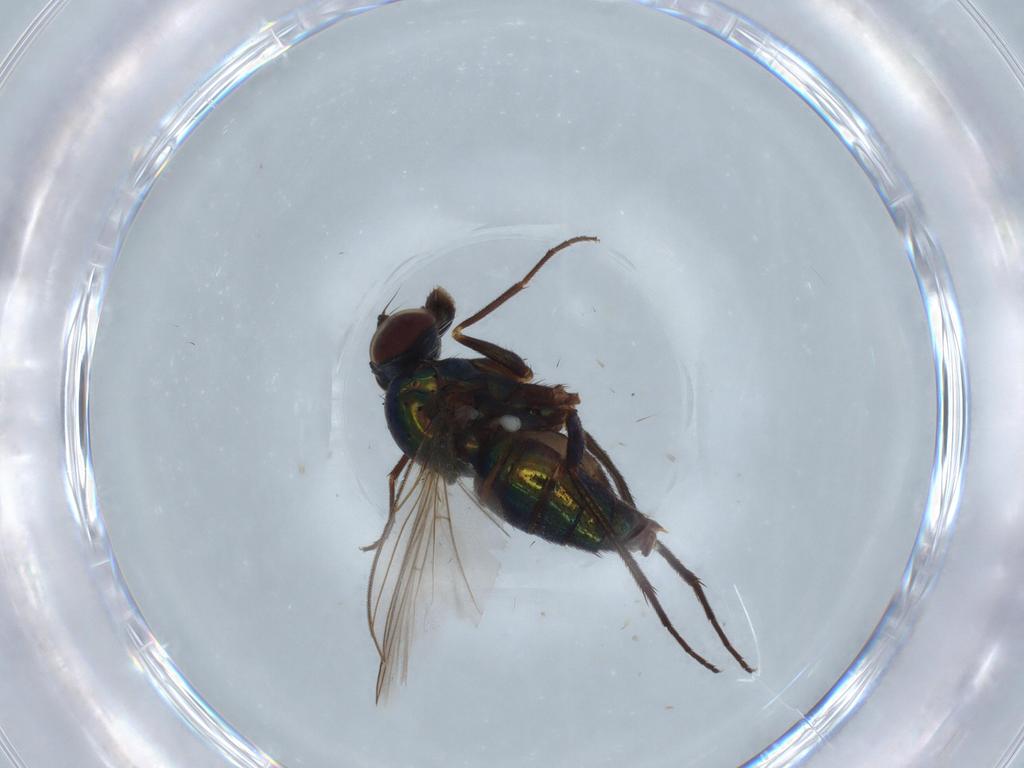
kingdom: Animalia
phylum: Arthropoda
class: Insecta
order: Diptera
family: Dolichopodidae
